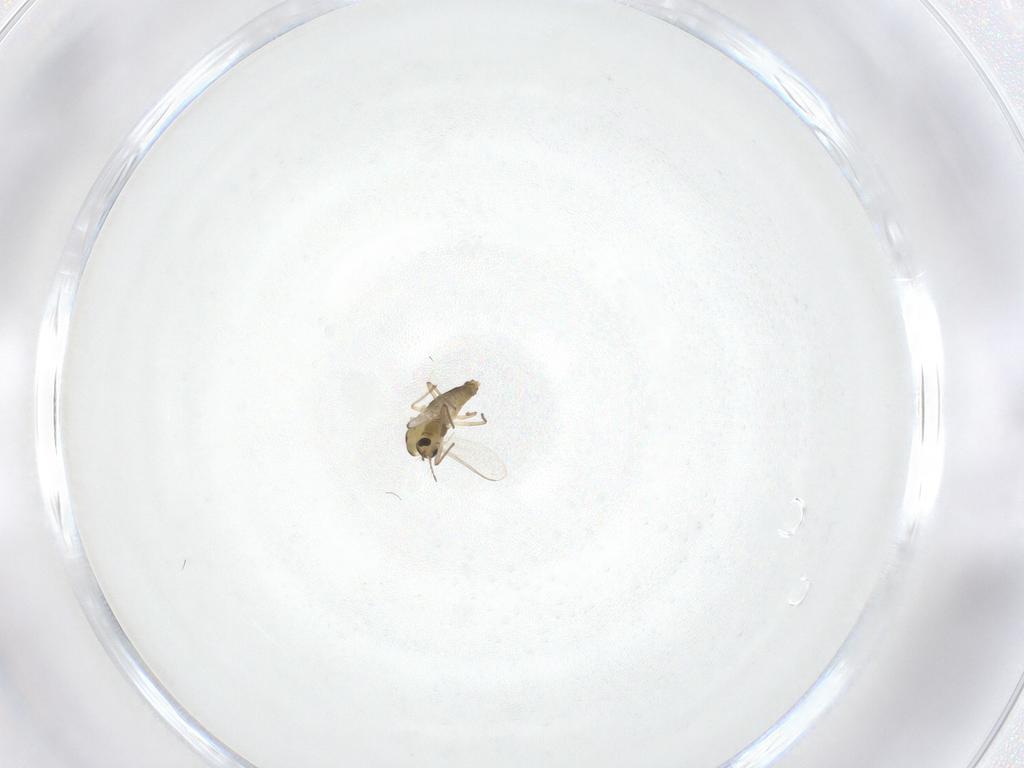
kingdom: Animalia
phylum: Arthropoda
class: Insecta
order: Diptera
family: Chironomidae
